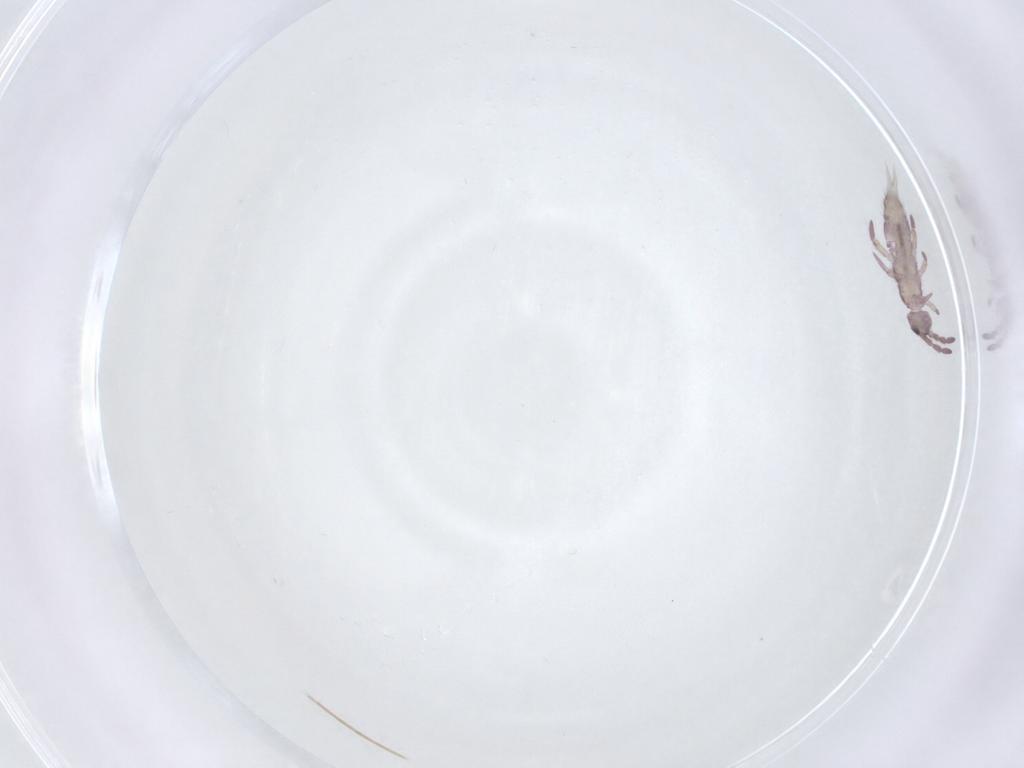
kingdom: Animalia
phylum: Arthropoda
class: Insecta
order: Diptera
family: Chironomidae
